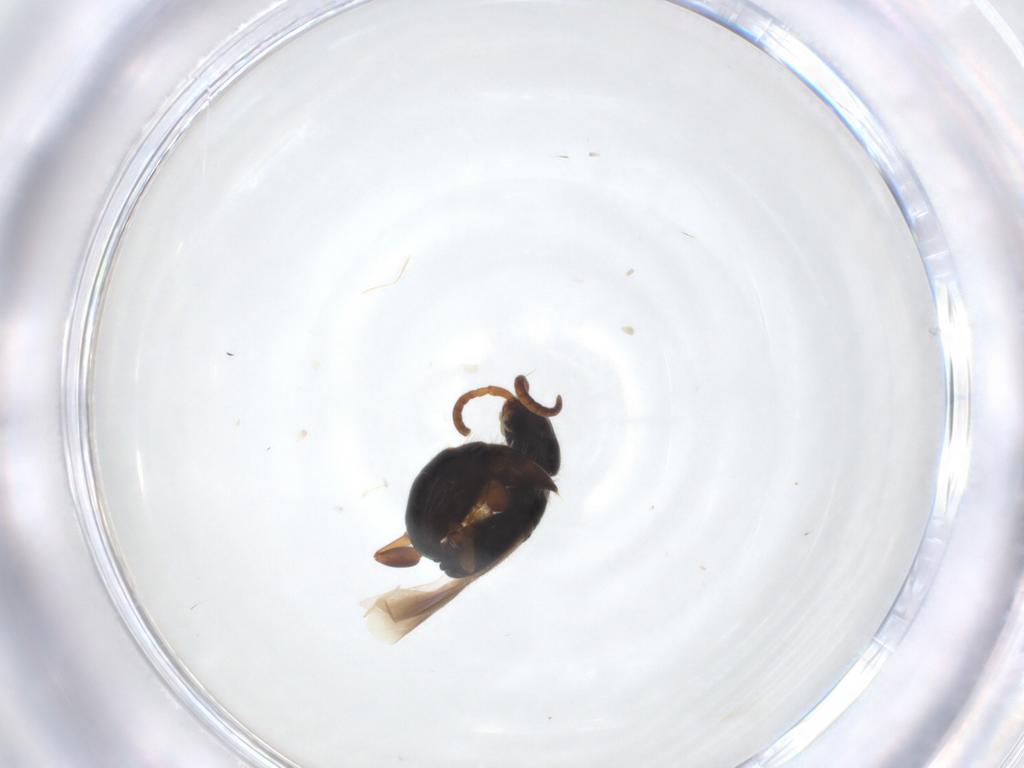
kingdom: Animalia
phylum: Arthropoda
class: Insecta
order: Hymenoptera
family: Bethylidae
